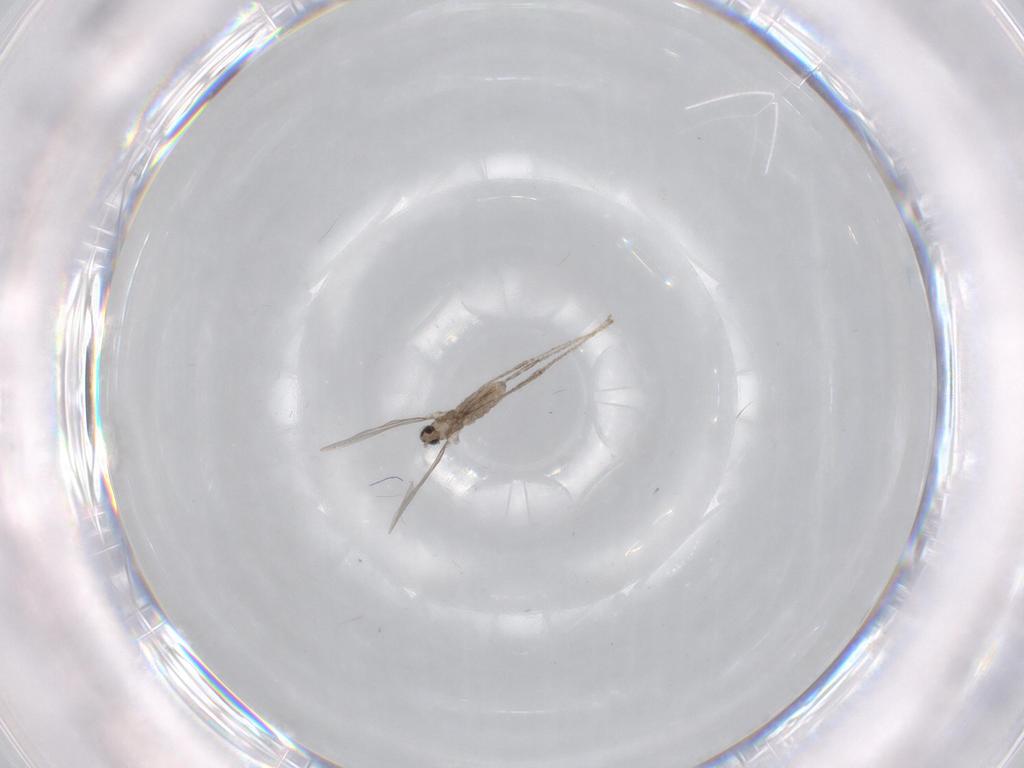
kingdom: Animalia
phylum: Arthropoda
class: Insecta
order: Diptera
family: Cecidomyiidae
